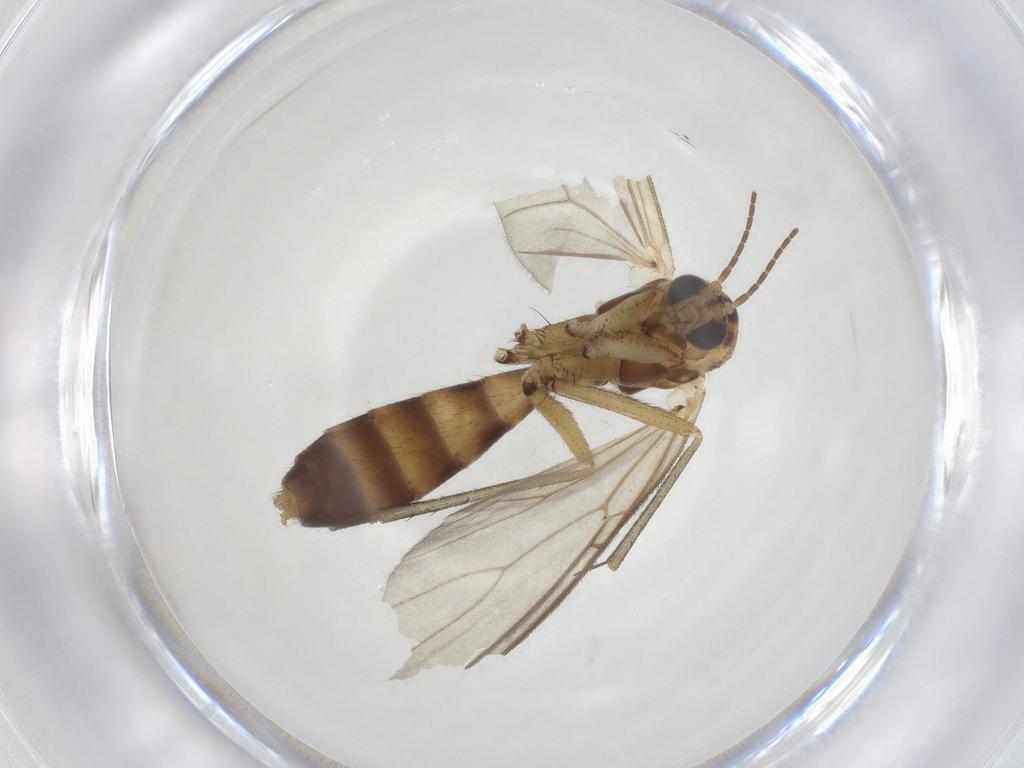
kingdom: Animalia
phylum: Arthropoda
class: Insecta
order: Diptera
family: Mycetophilidae
